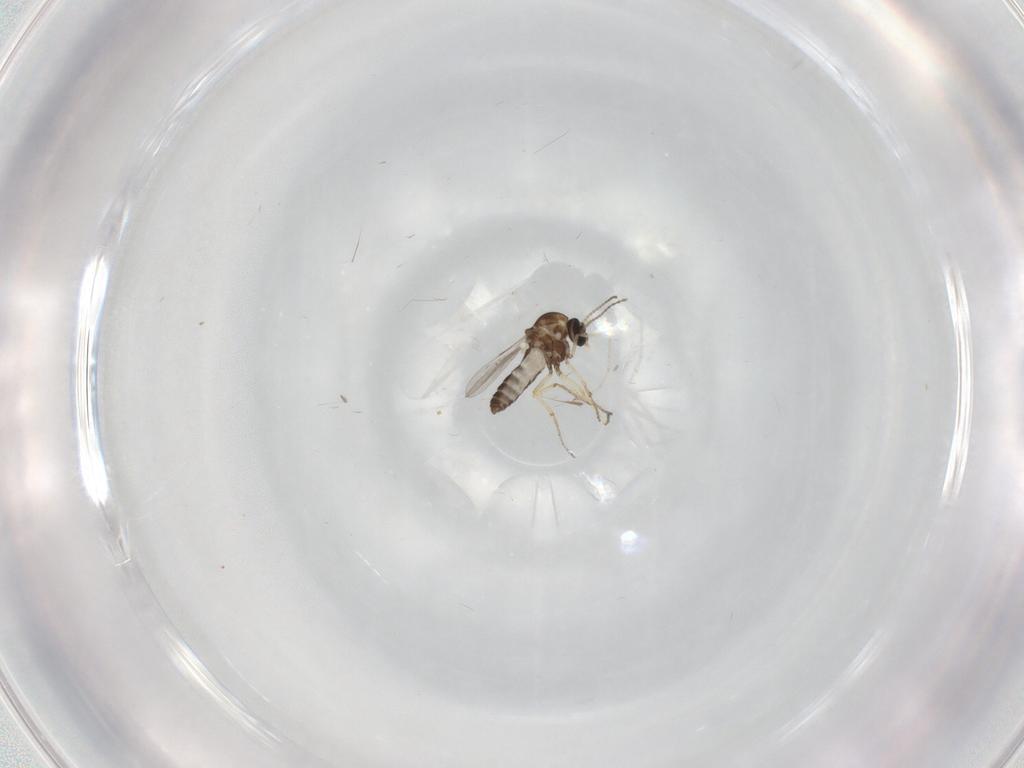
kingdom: Animalia
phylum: Arthropoda
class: Insecta
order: Diptera
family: Ceratopogonidae
